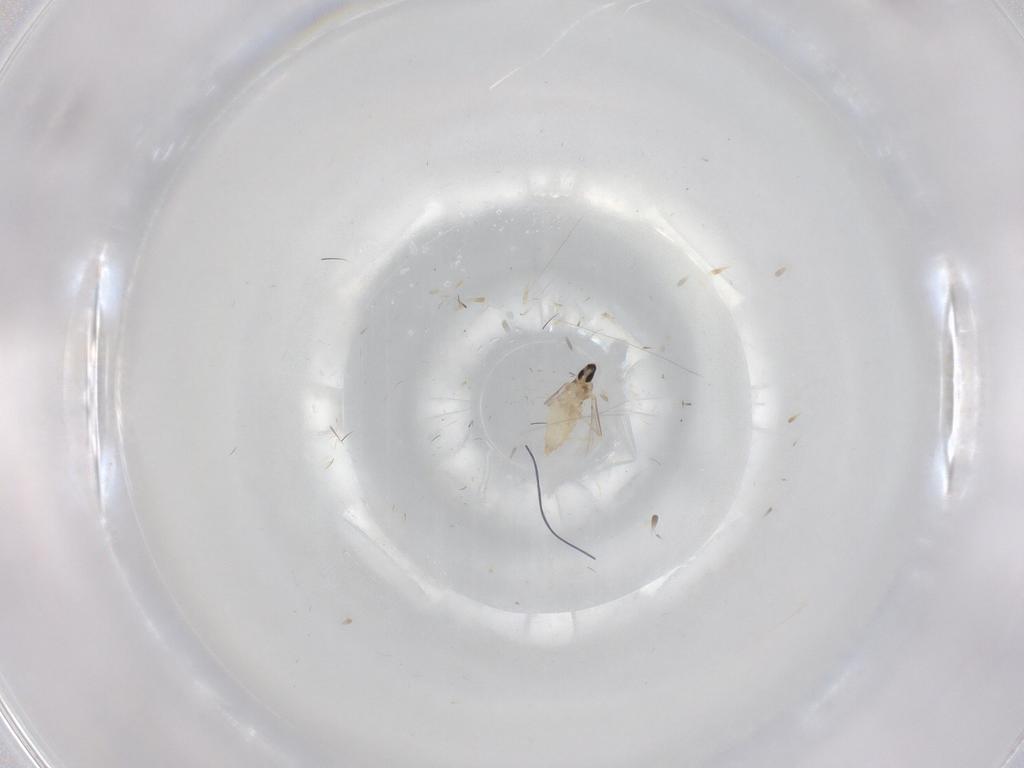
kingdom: Animalia
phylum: Arthropoda
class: Insecta
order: Diptera
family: Cecidomyiidae
